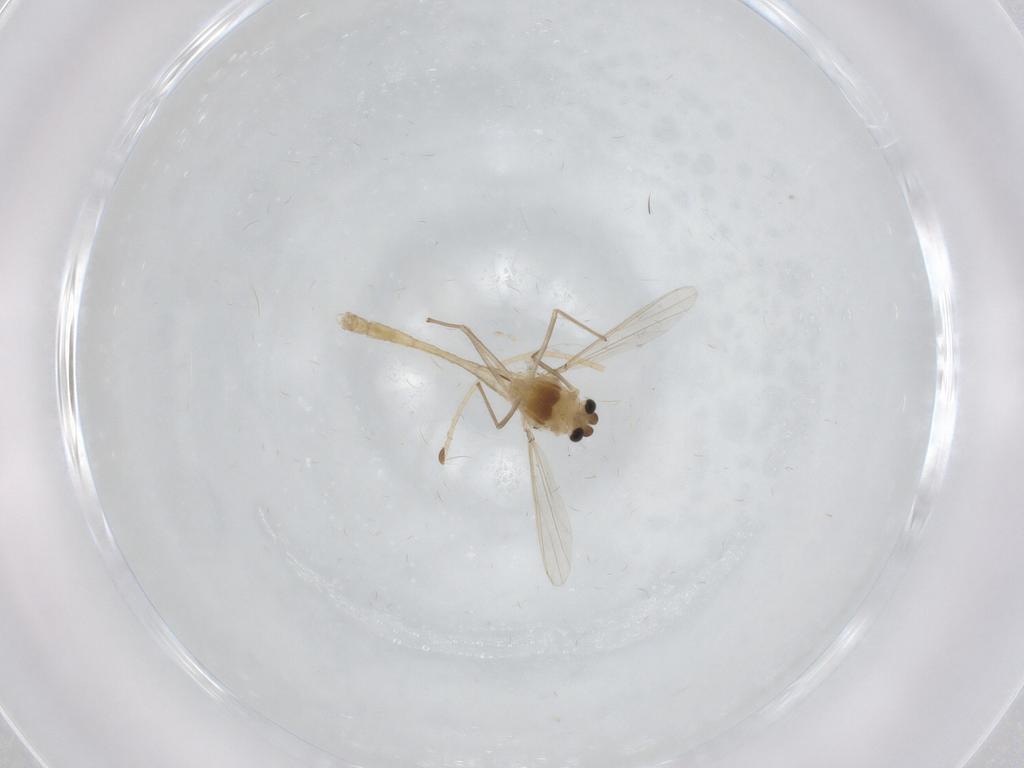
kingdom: Animalia
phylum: Arthropoda
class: Insecta
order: Diptera
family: Chironomidae
